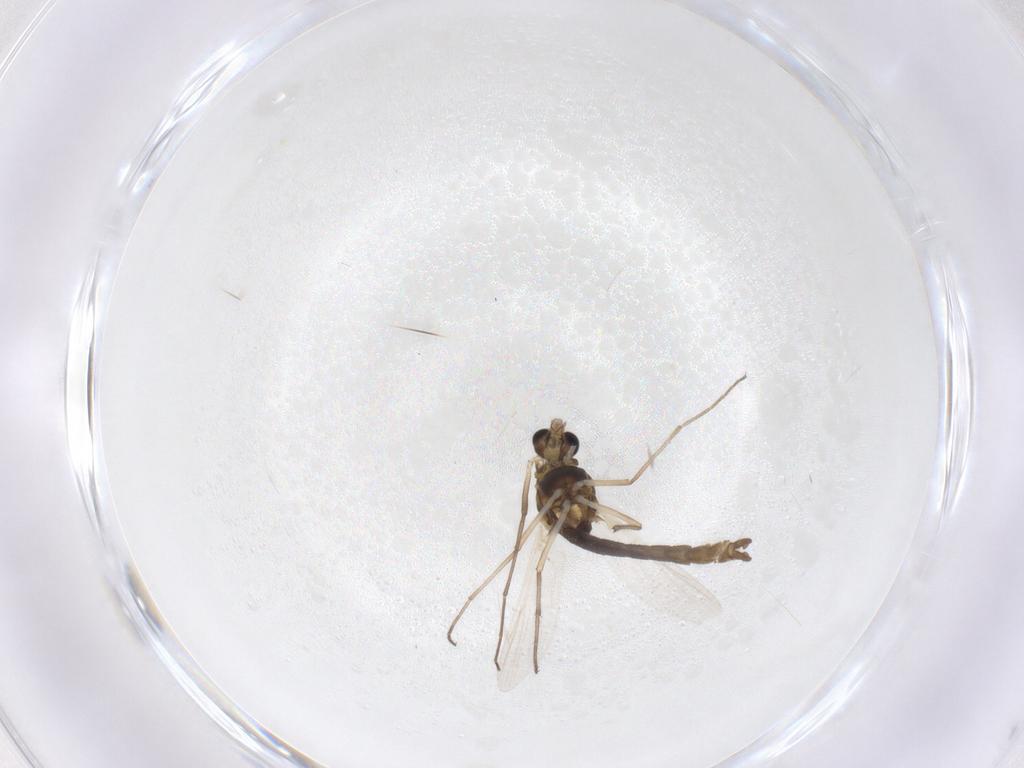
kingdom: Animalia
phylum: Arthropoda
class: Insecta
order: Diptera
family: Chironomidae
